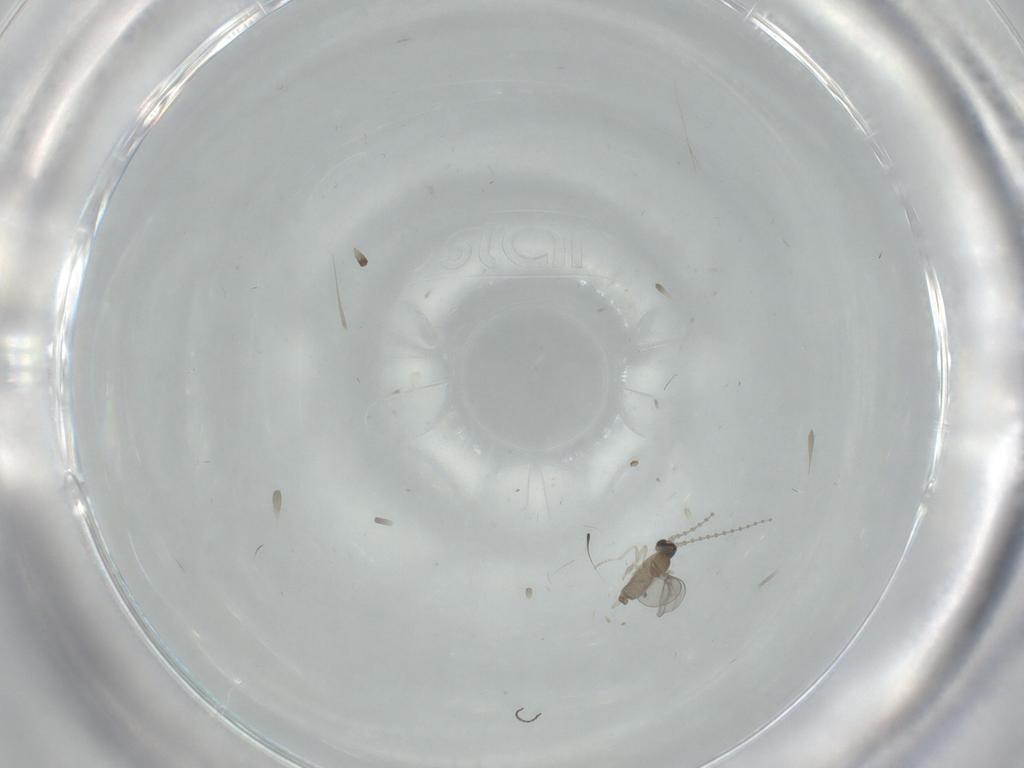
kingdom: Animalia
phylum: Arthropoda
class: Insecta
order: Diptera
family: Cecidomyiidae
